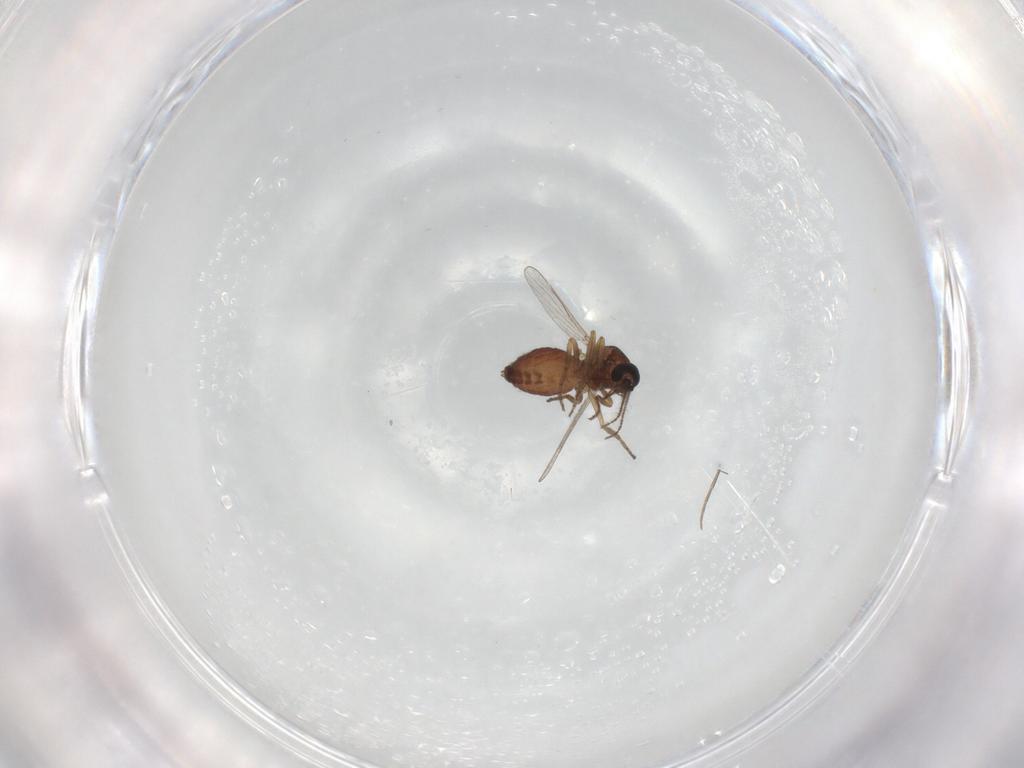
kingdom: Animalia
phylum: Arthropoda
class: Insecta
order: Diptera
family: Ceratopogonidae
